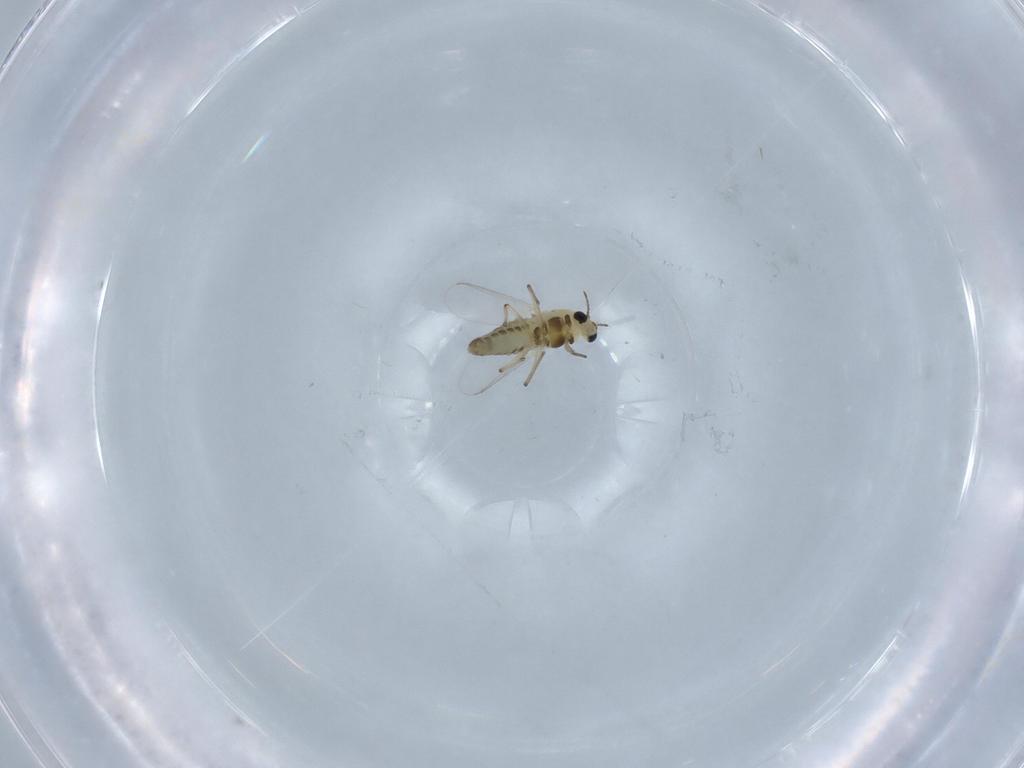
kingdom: Animalia
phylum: Arthropoda
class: Insecta
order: Diptera
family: Chironomidae
